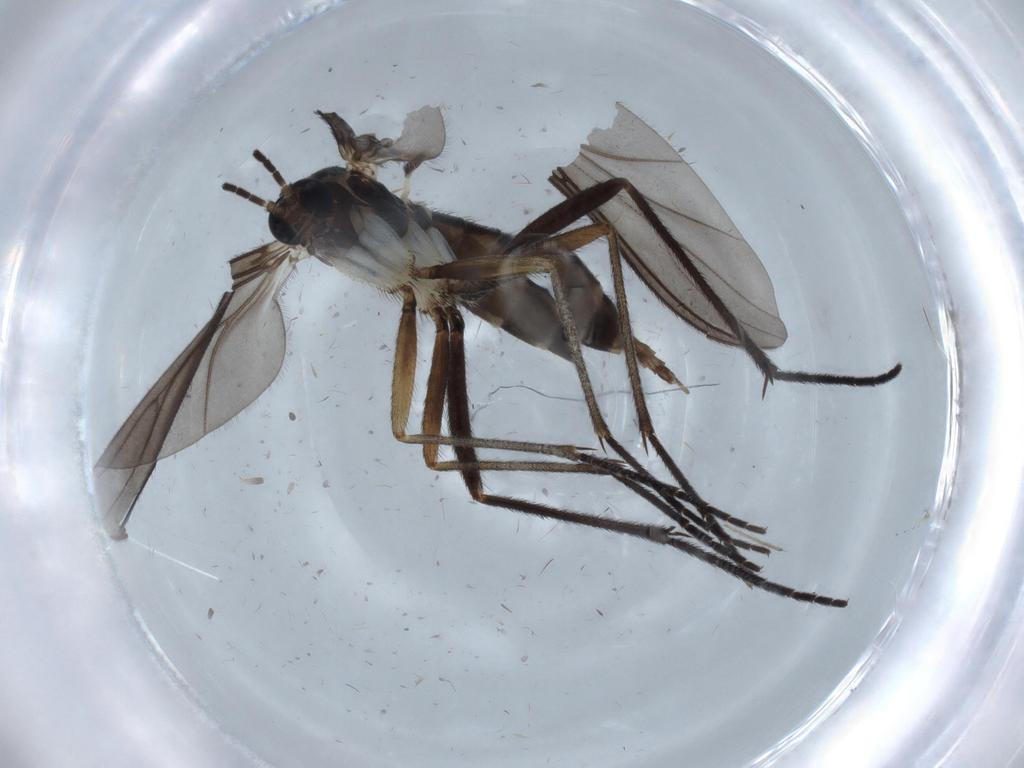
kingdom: Animalia
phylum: Arthropoda
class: Insecta
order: Diptera
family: Sciaridae
